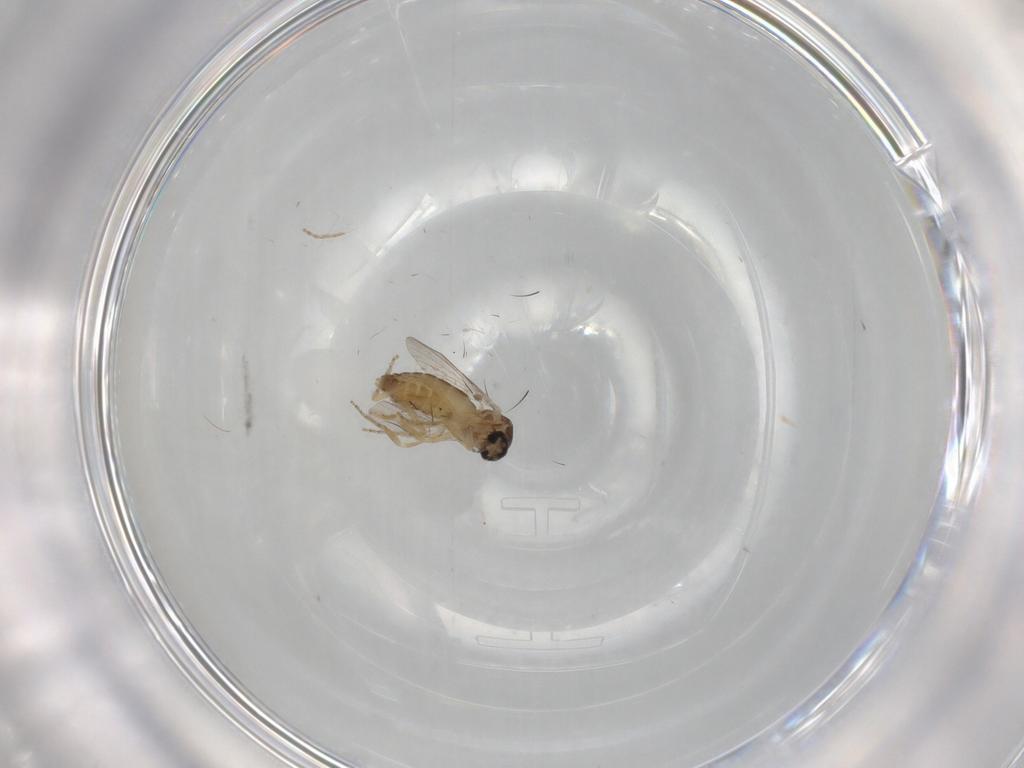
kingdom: Animalia
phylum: Arthropoda
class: Insecta
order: Diptera
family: Ceratopogonidae
